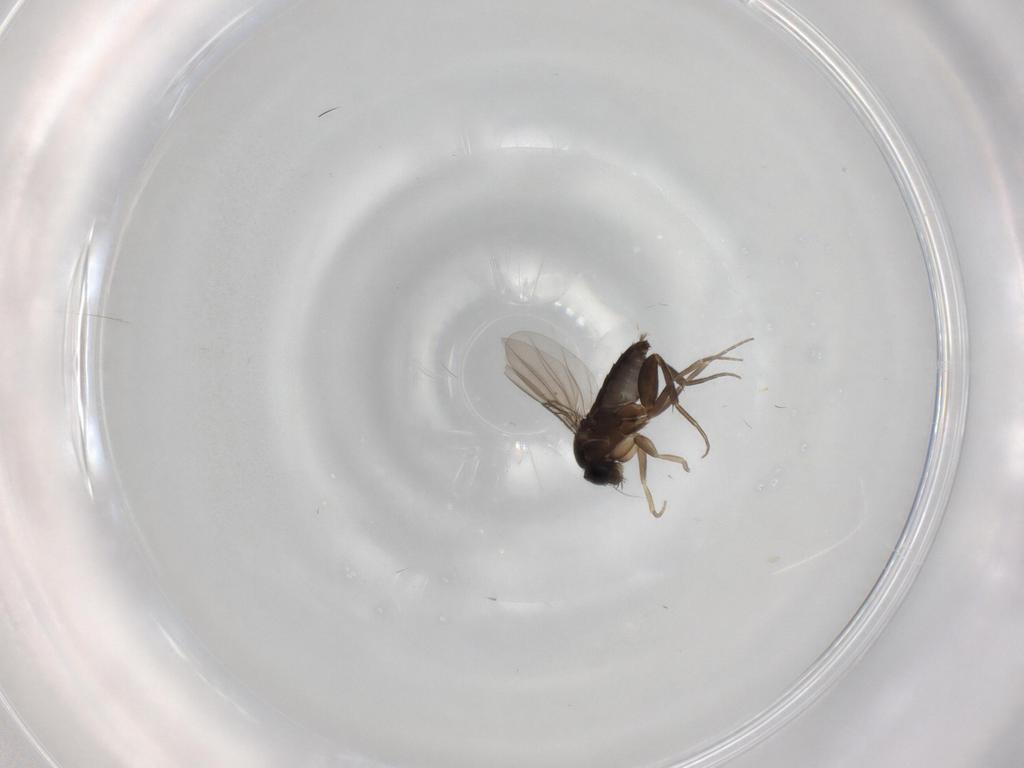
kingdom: Animalia
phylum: Arthropoda
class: Insecta
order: Diptera
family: Phoridae
